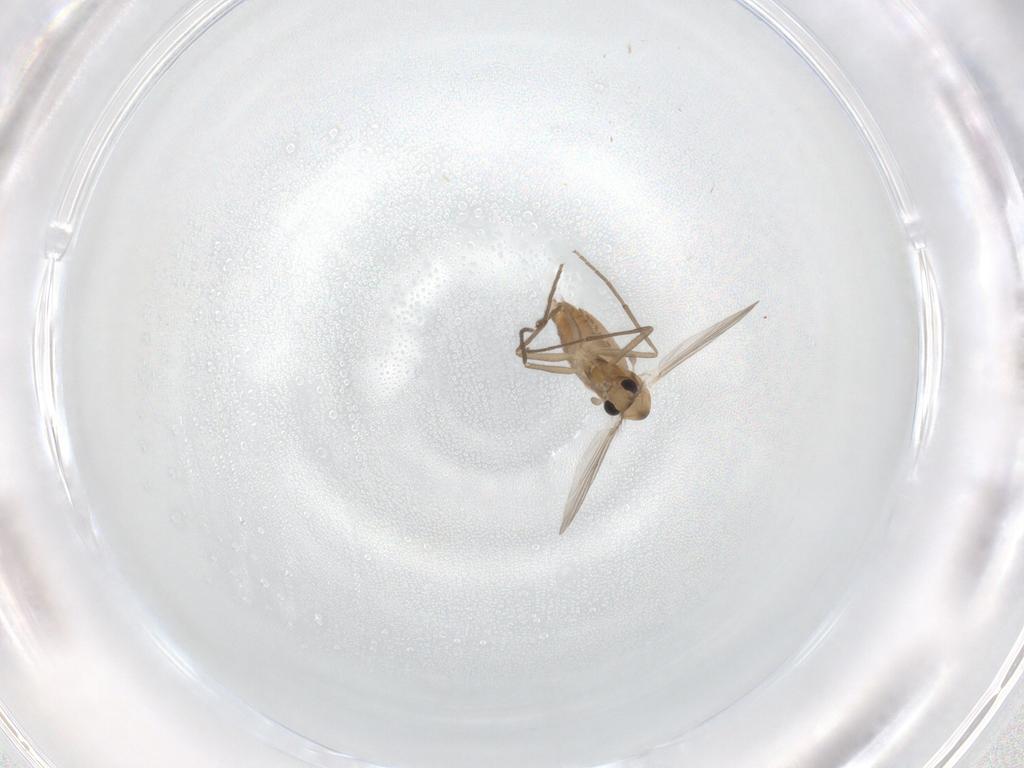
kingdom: Animalia
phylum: Arthropoda
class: Insecta
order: Diptera
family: Chironomidae
